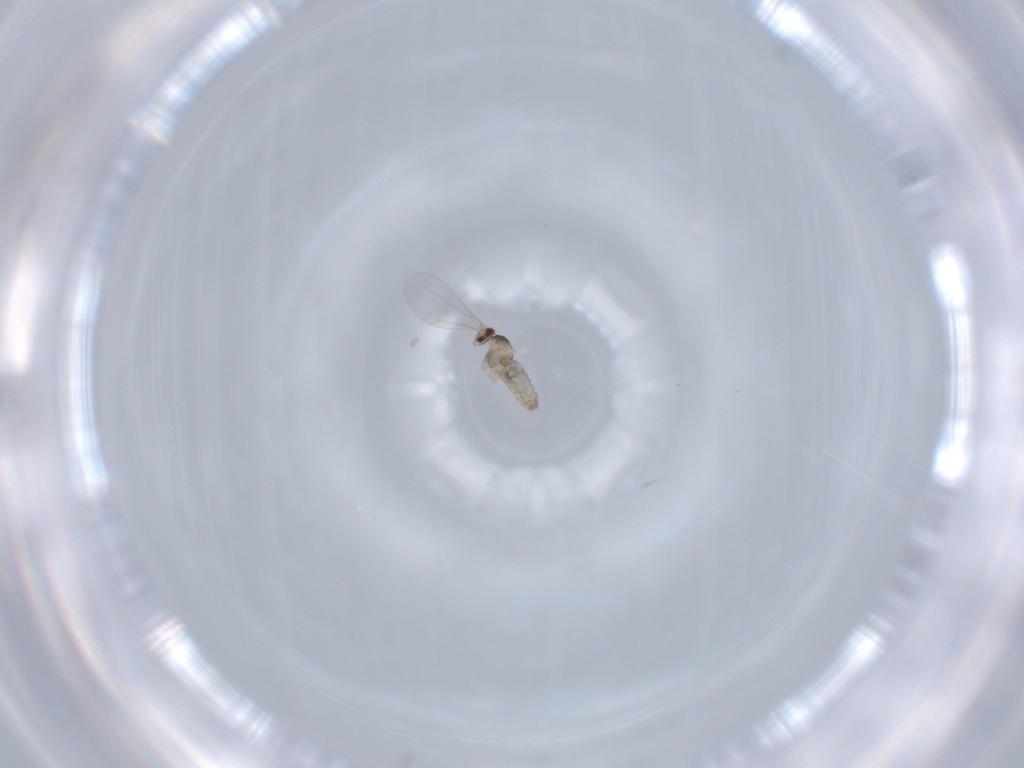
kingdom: Animalia
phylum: Arthropoda
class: Insecta
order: Diptera
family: Cecidomyiidae
